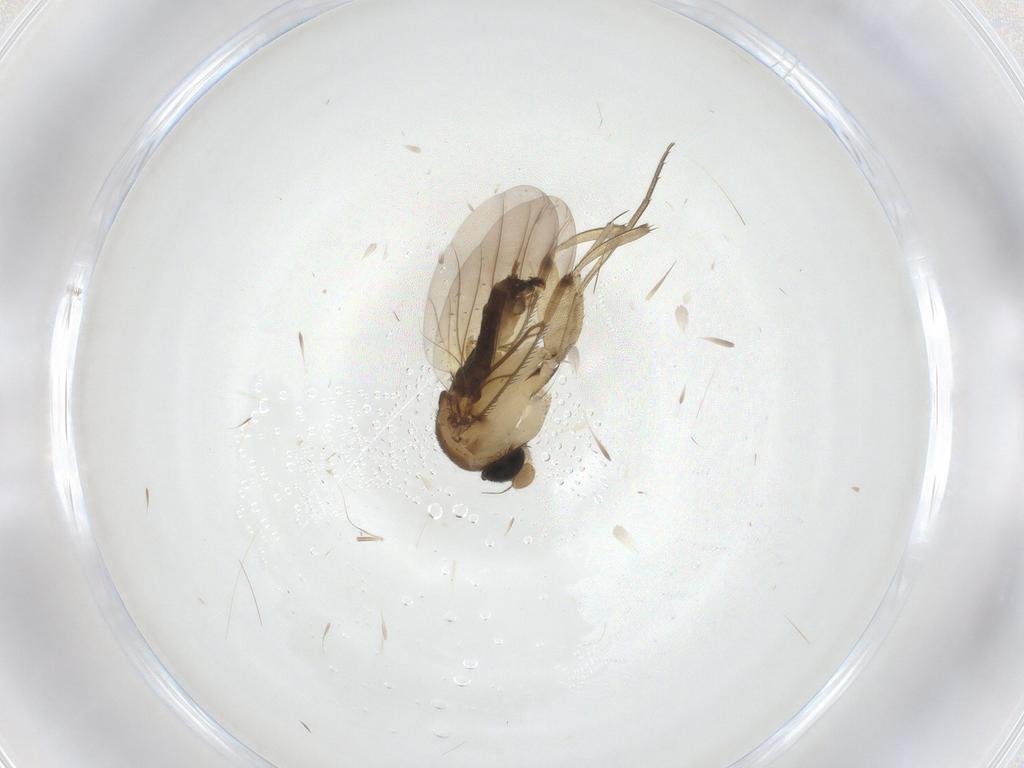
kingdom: Animalia
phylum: Arthropoda
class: Insecta
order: Diptera
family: Phoridae
